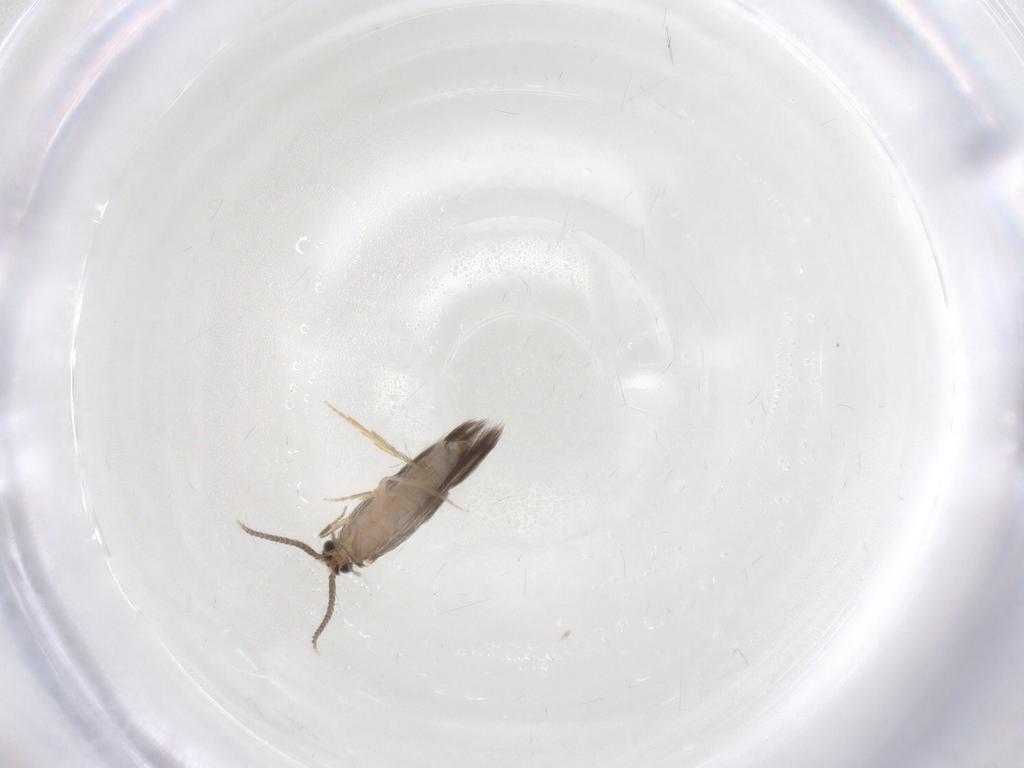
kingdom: Animalia
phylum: Arthropoda
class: Insecta
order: Trichoptera
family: Hydroptilidae
